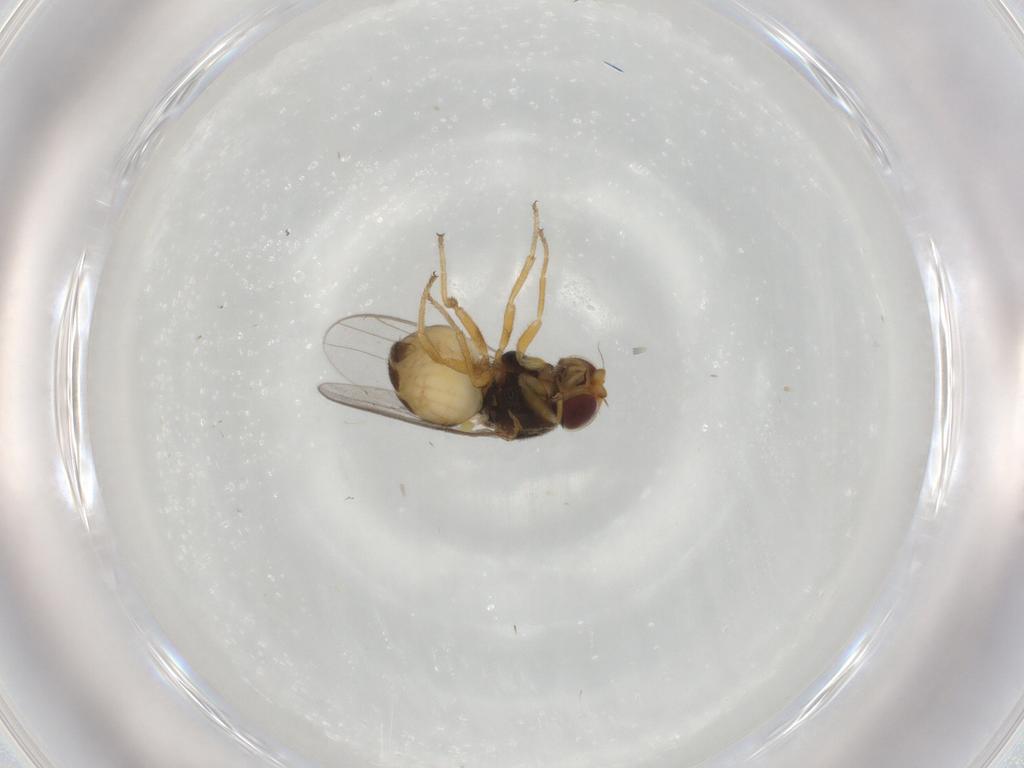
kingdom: Animalia
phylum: Arthropoda
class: Insecta
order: Diptera
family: Chloropidae
